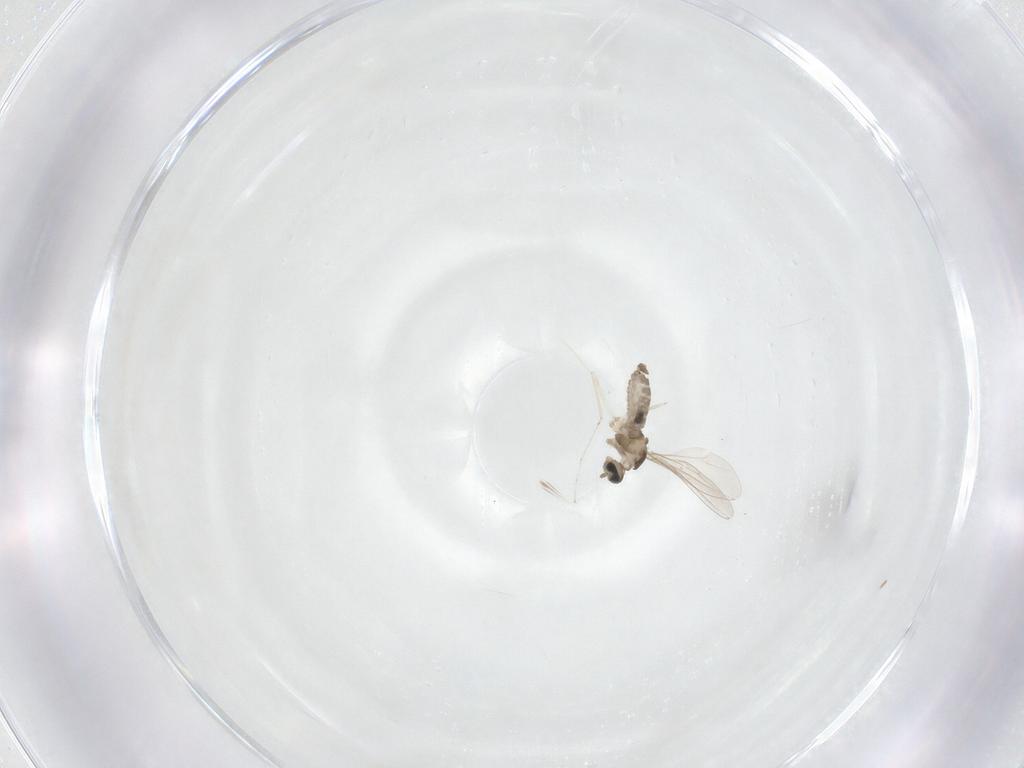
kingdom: Animalia
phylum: Arthropoda
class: Insecta
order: Diptera
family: Cecidomyiidae
